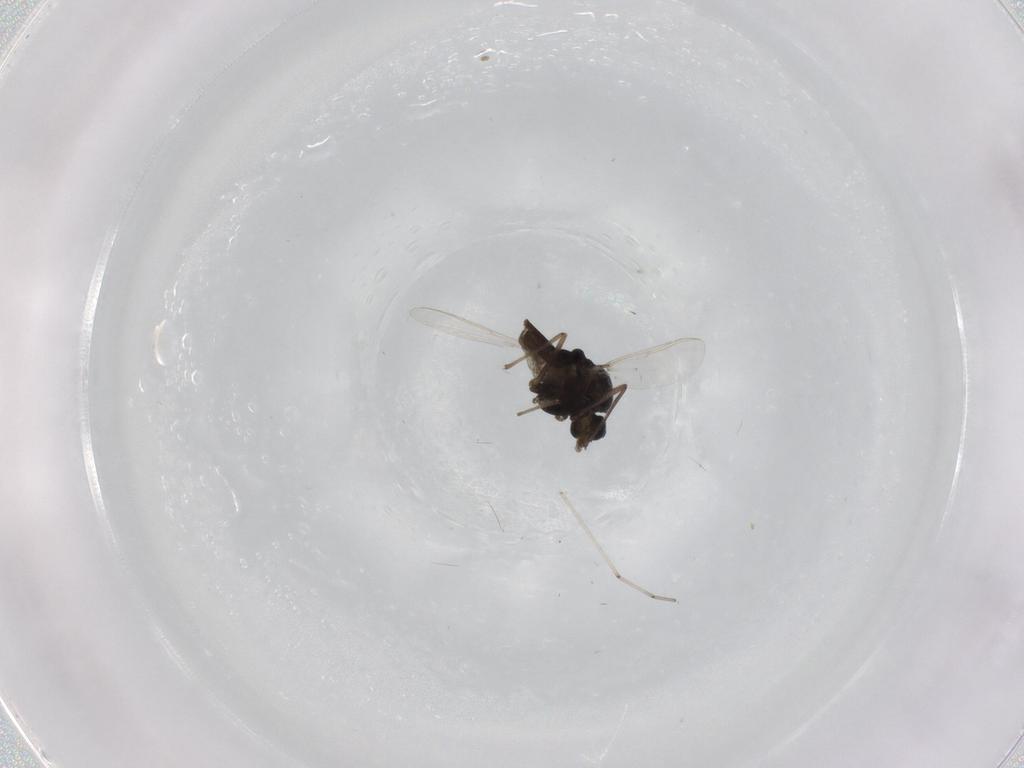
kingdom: Animalia
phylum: Arthropoda
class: Insecta
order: Diptera
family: Chironomidae
